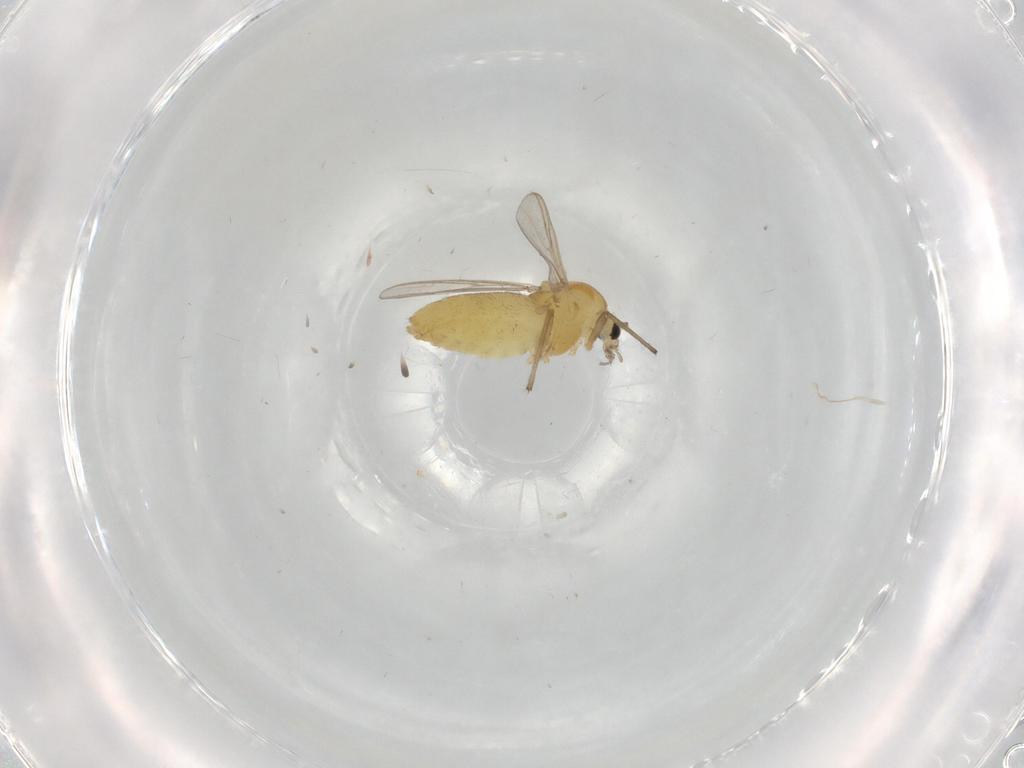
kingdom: Animalia
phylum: Arthropoda
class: Insecta
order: Diptera
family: Chironomidae
